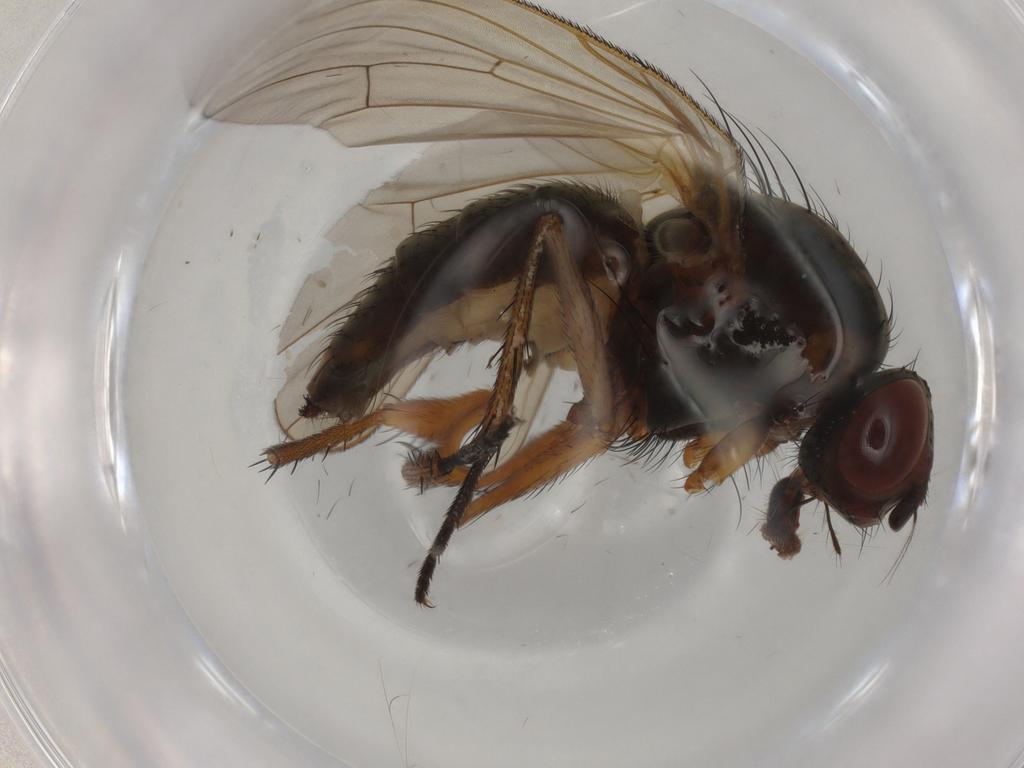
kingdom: Animalia
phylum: Arthropoda
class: Insecta
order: Diptera
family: Anthomyiidae
